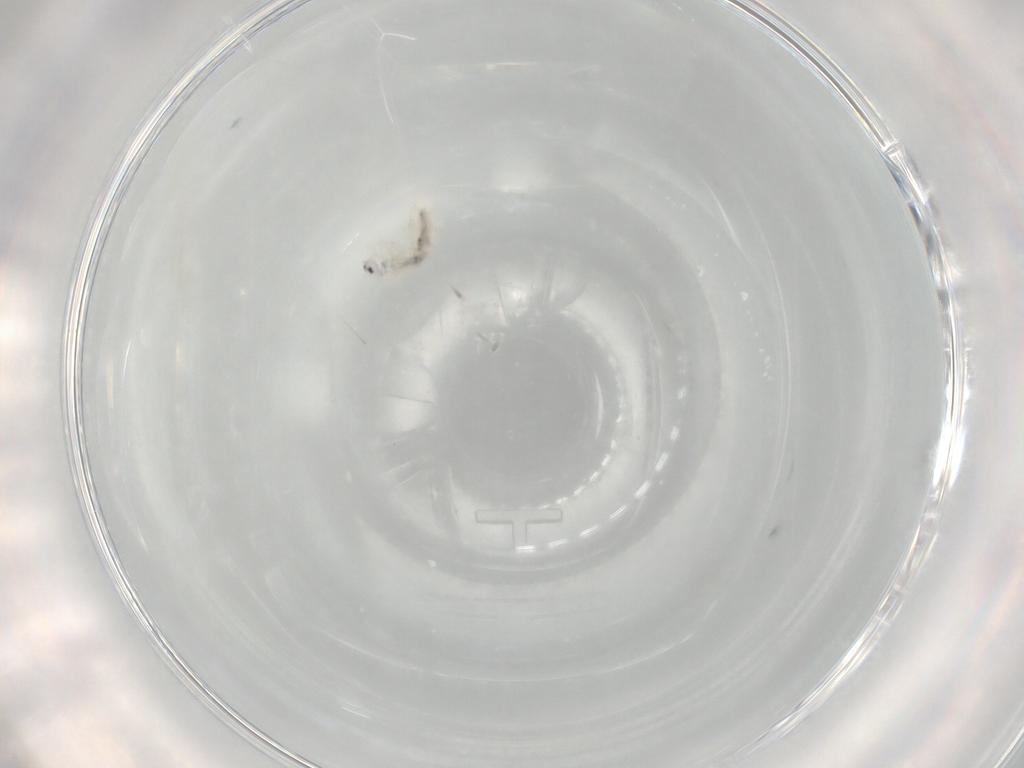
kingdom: Animalia
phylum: Arthropoda
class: Collembola
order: Entomobryomorpha
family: Entomobryidae
